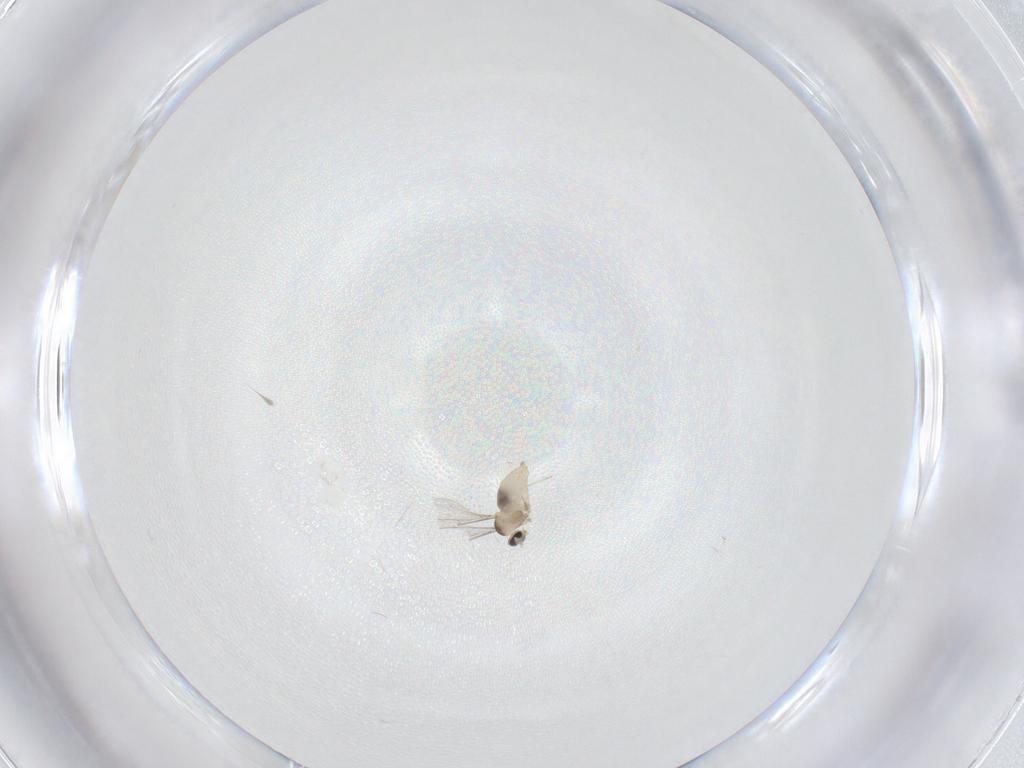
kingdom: Animalia
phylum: Arthropoda
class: Insecta
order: Diptera
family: Cecidomyiidae
